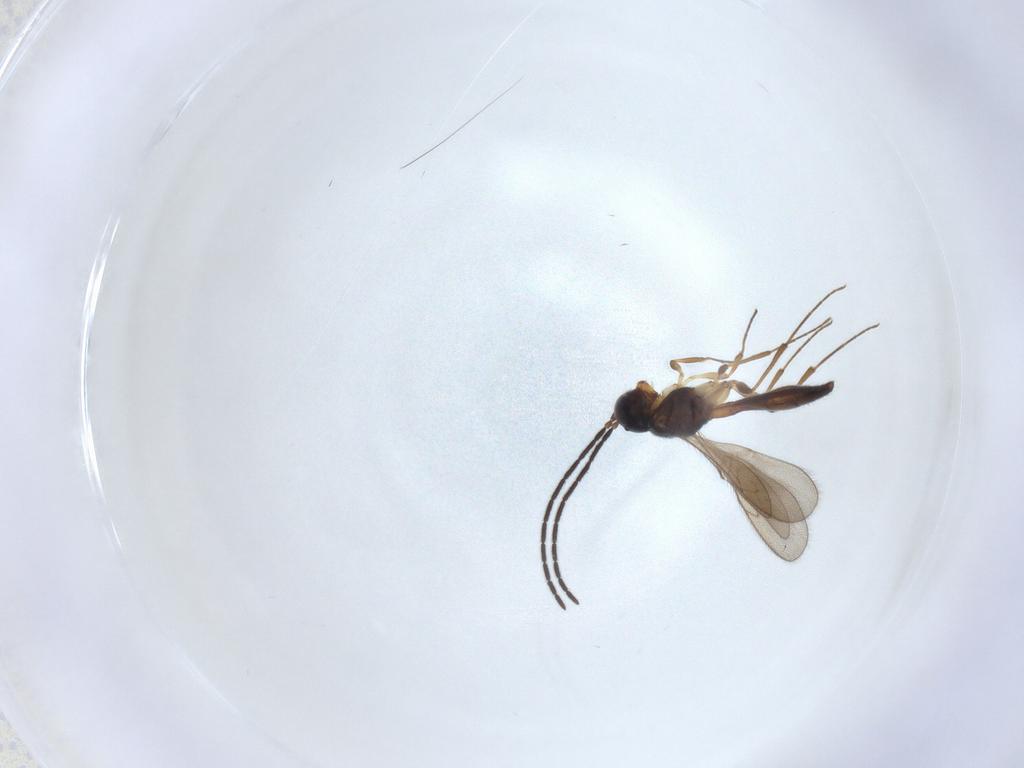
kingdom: Animalia
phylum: Arthropoda
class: Insecta
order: Hymenoptera
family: Scelionidae
